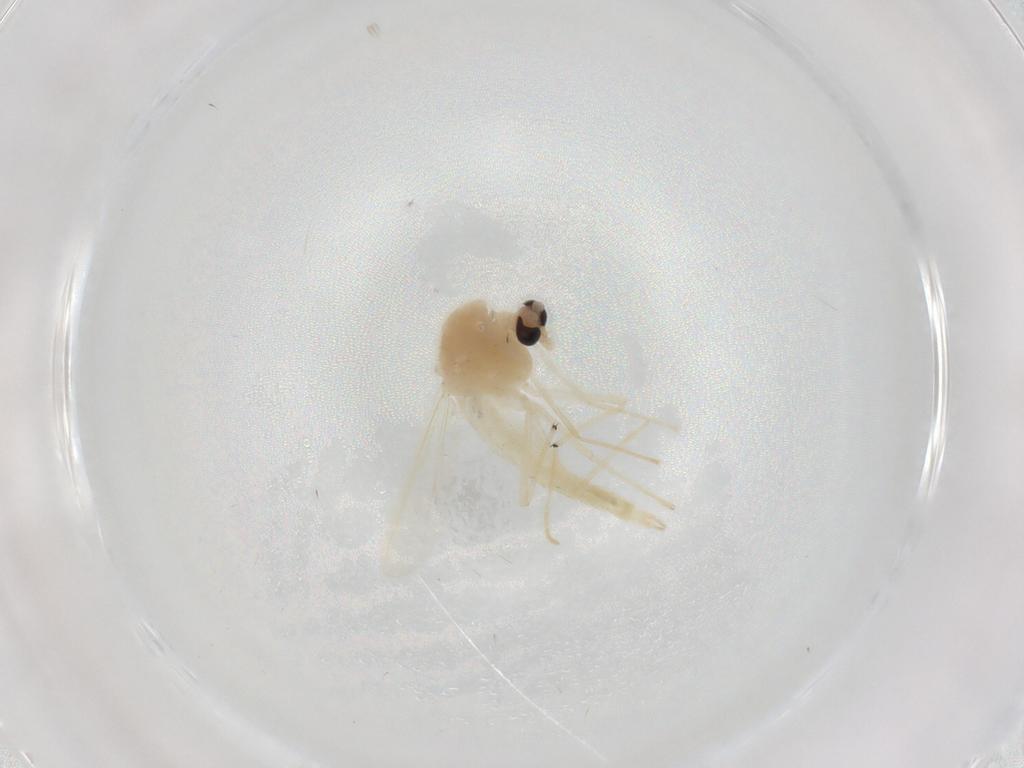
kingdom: Animalia
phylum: Arthropoda
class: Insecta
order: Diptera
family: Chironomidae
